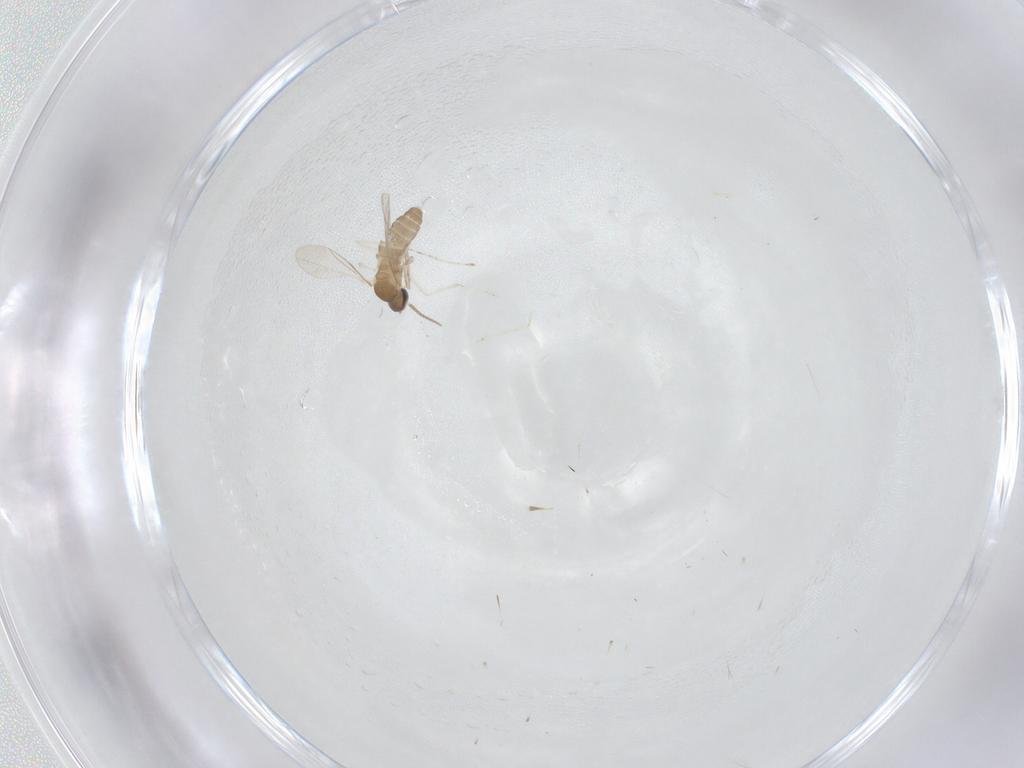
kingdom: Animalia
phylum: Arthropoda
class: Insecta
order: Diptera
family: Cecidomyiidae
